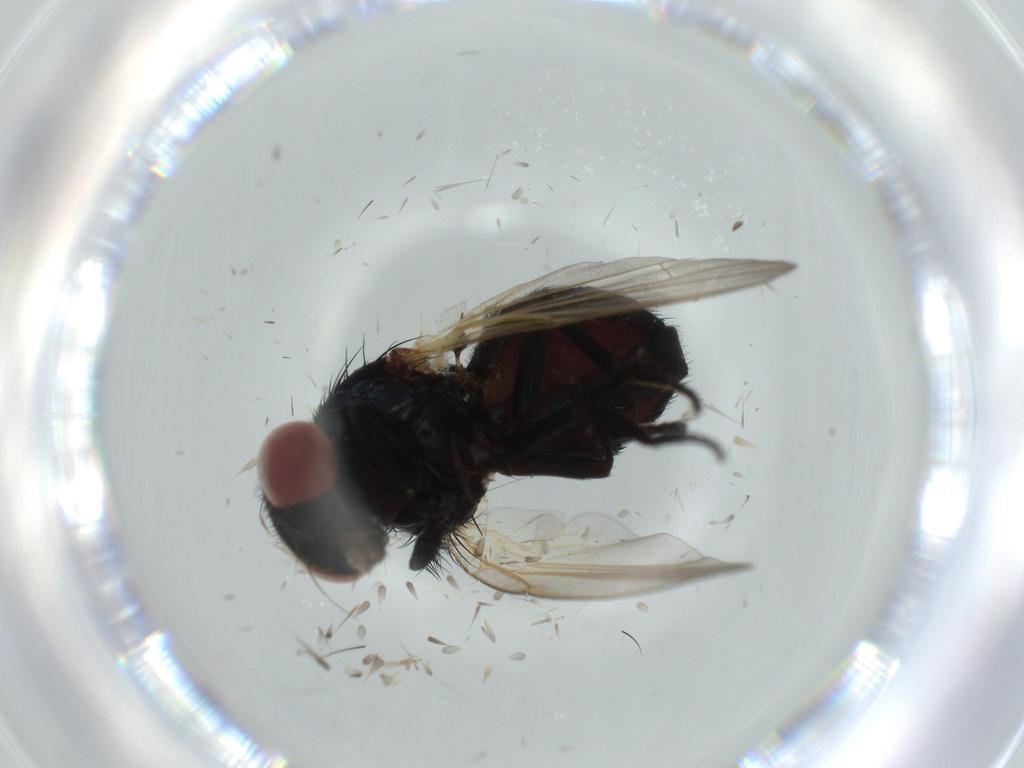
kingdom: Animalia
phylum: Arthropoda
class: Insecta
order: Diptera
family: Lonchaeidae
